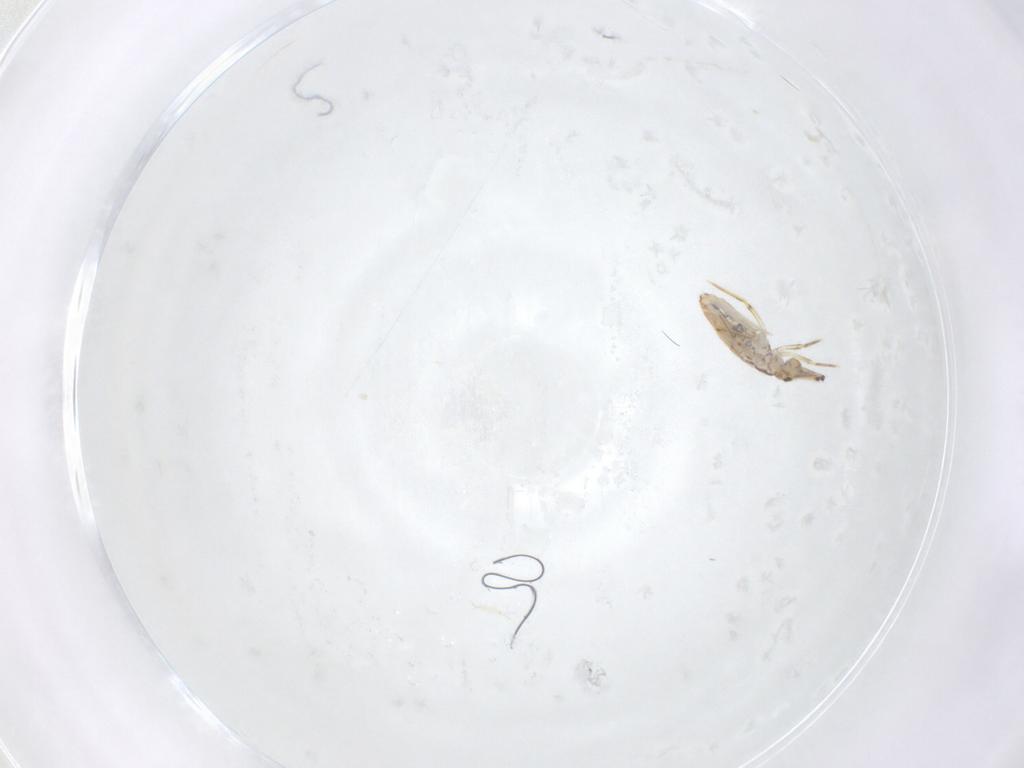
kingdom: Animalia
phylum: Arthropoda
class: Collembola
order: Entomobryomorpha
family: Paronellidae
